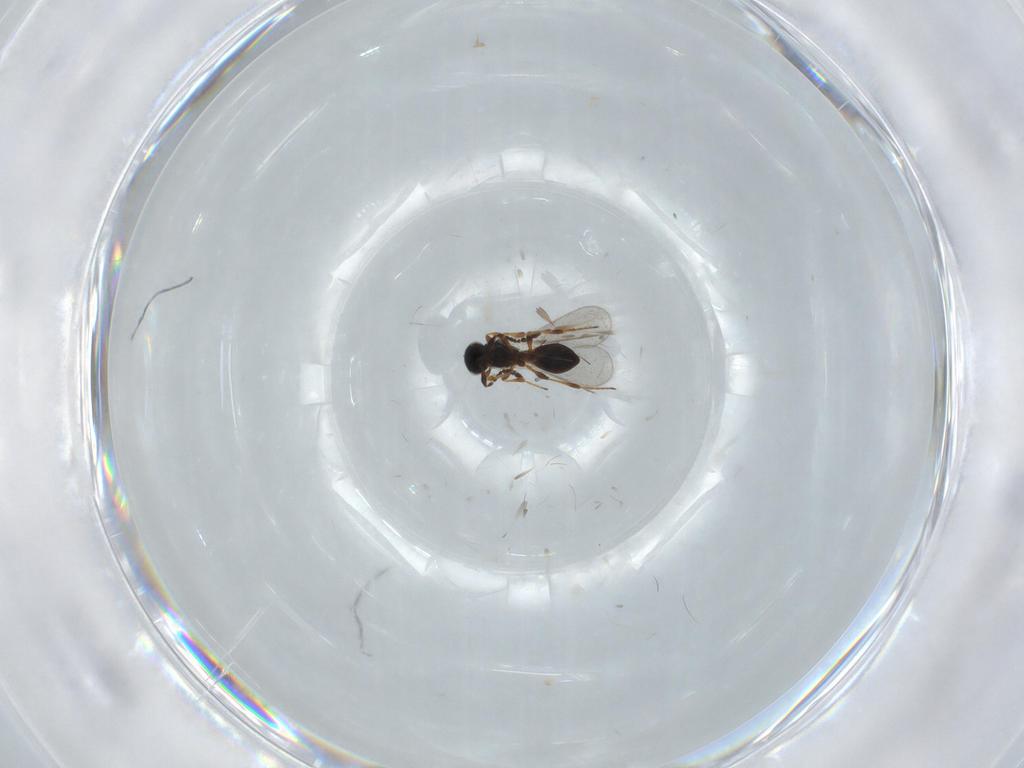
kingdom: Animalia
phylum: Arthropoda
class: Insecta
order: Hymenoptera
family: Platygastridae
